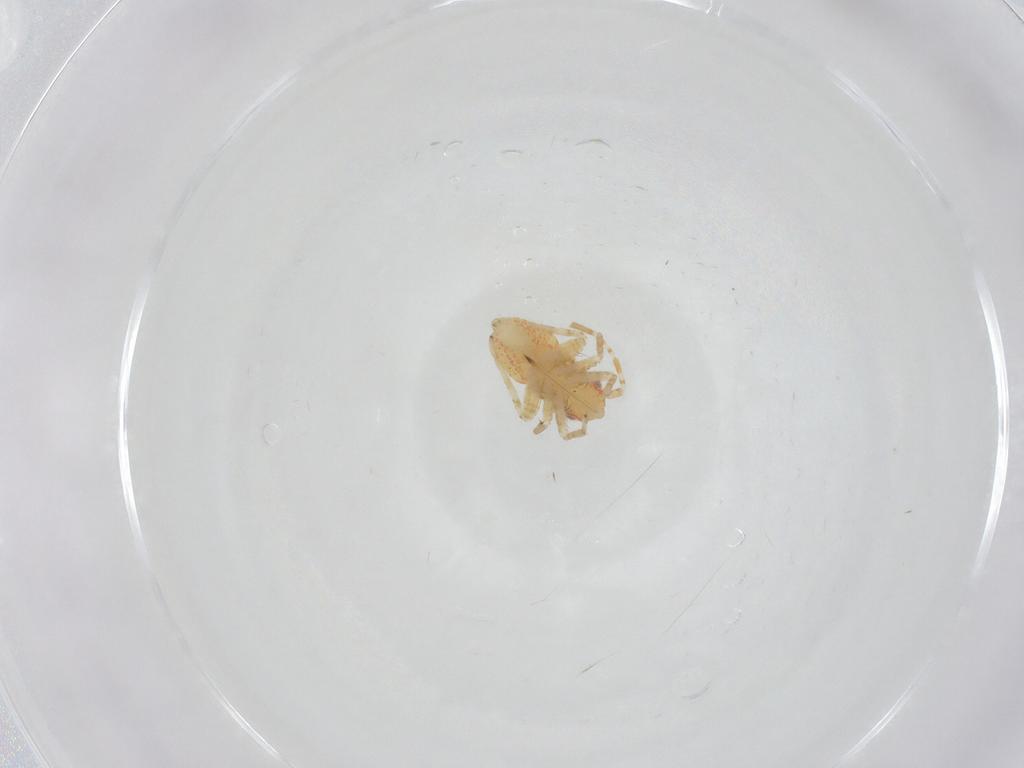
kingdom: Animalia
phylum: Arthropoda
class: Insecta
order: Hemiptera
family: Miridae
